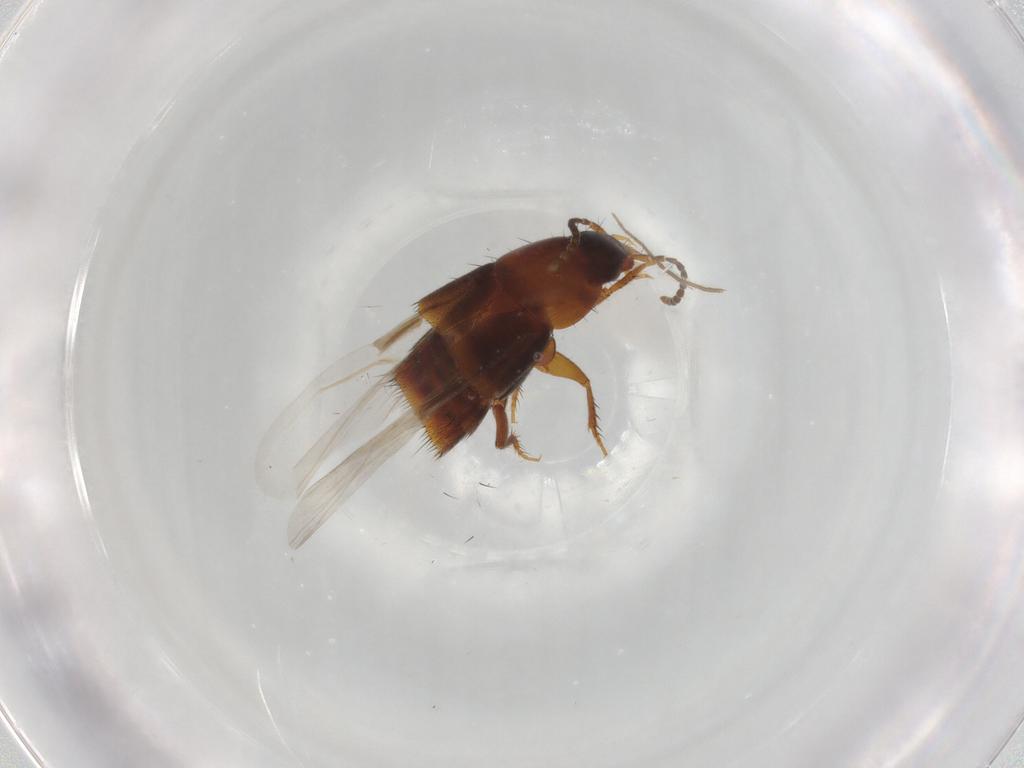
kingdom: Animalia
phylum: Arthropoda
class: Insecta
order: Coleoptera
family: Staphylinidae
